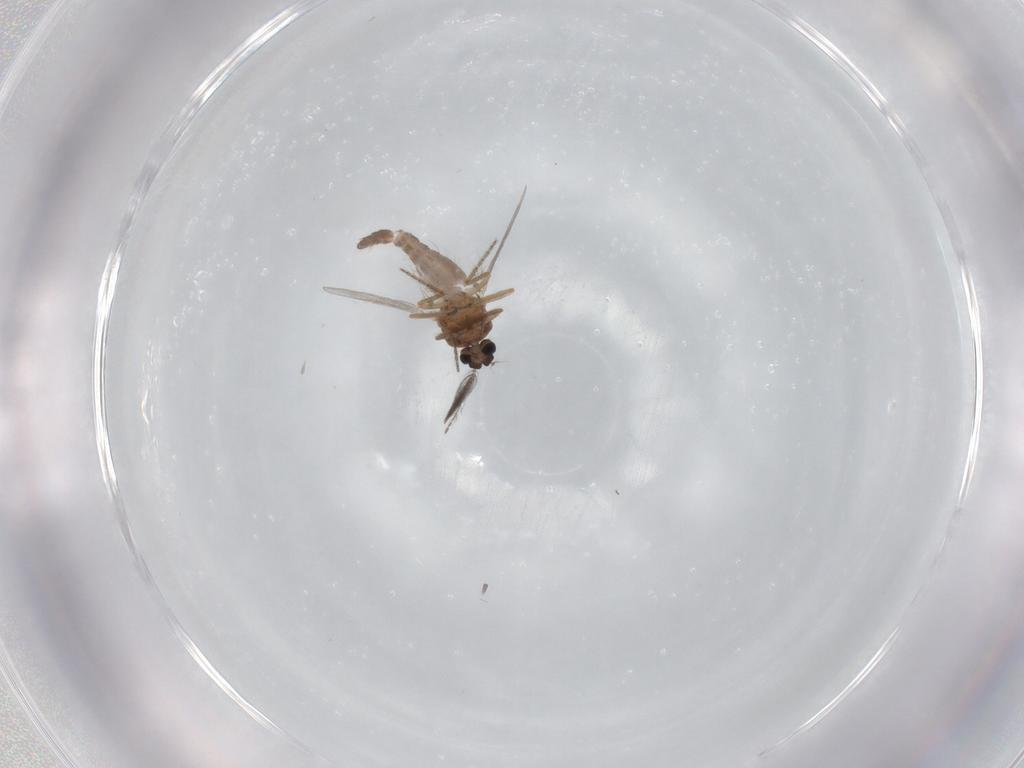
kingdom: Animalia
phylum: Arthropoda
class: Insecta
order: Diptera
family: Ceratopogonidae
